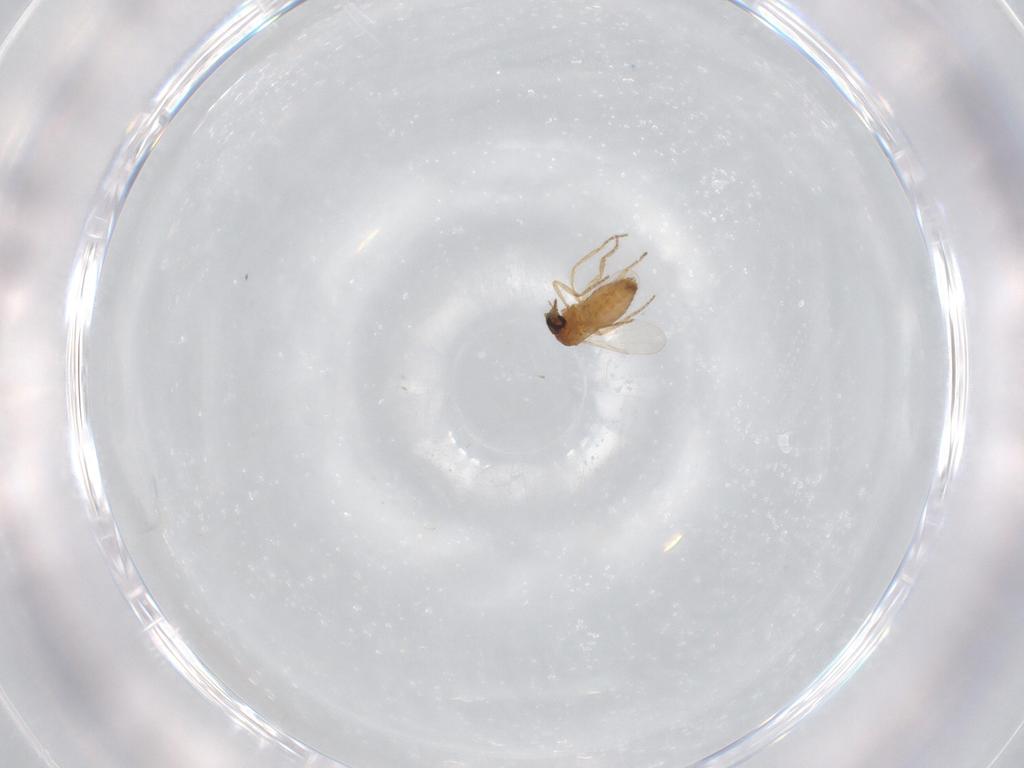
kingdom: Animalia
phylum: Arthropoda
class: Insecta
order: Diptera
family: Ceratopogonidae
